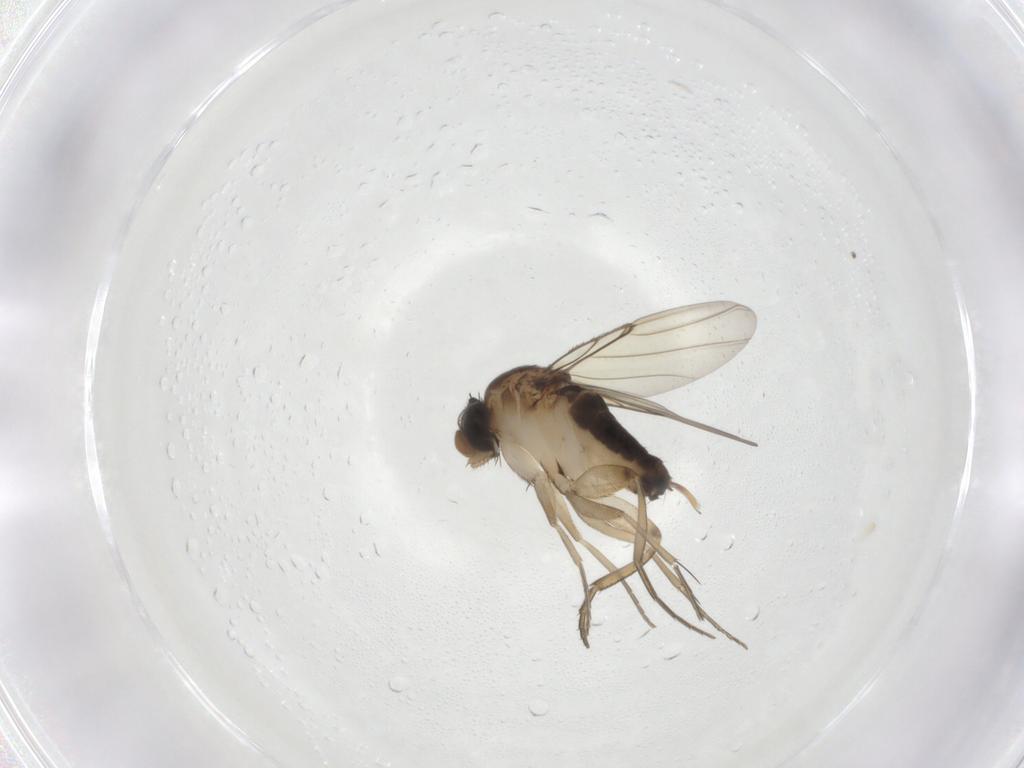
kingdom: Animalia
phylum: Arthropoda
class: Insecta
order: Diptera
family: Phoridae
